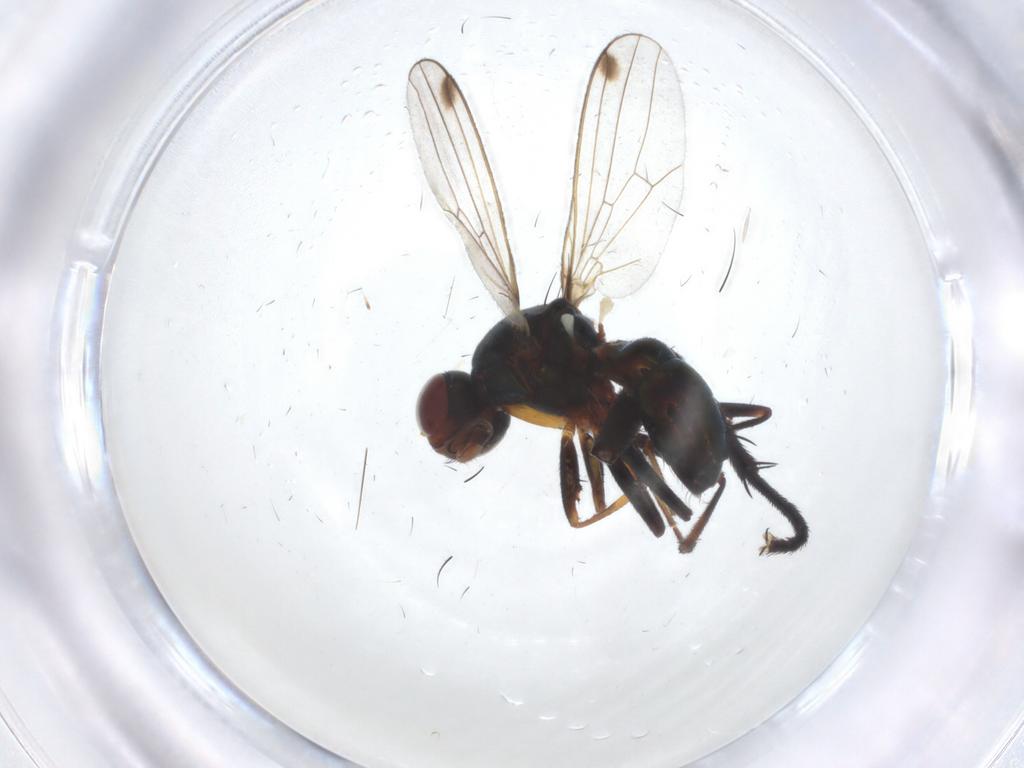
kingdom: Animalia
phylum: Arthropoda
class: Insecta
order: Diptera
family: Sepsidae
